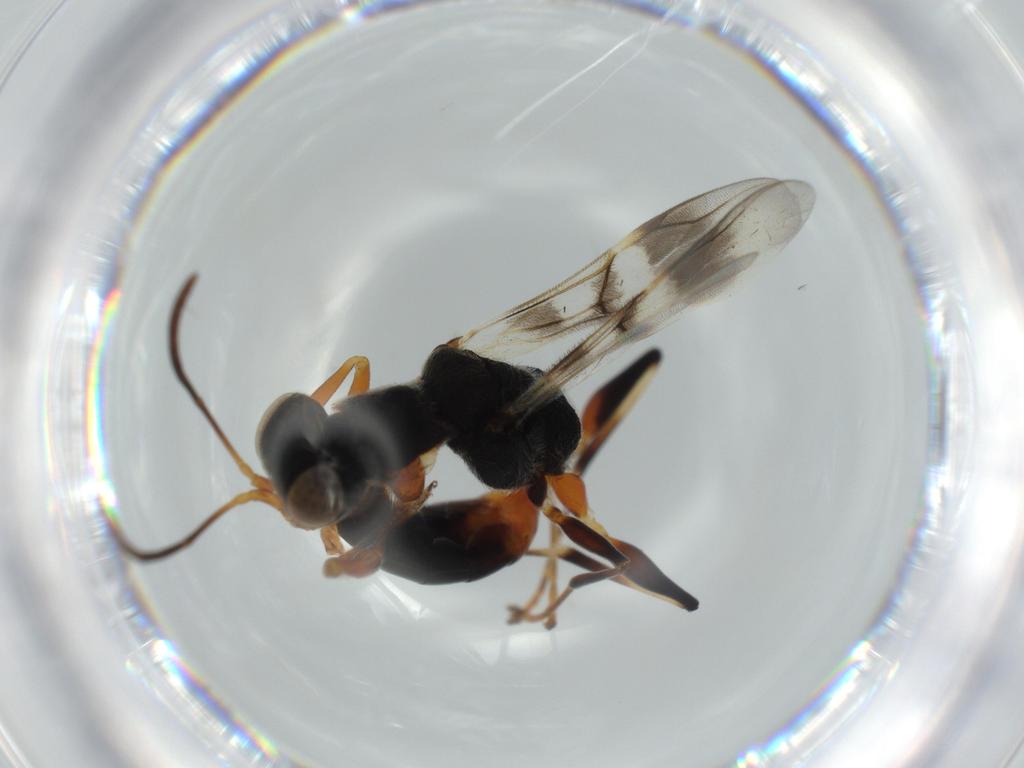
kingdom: Animalia
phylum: Arthropoda
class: Insecta
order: Hymenoptera
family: Dryinidae
